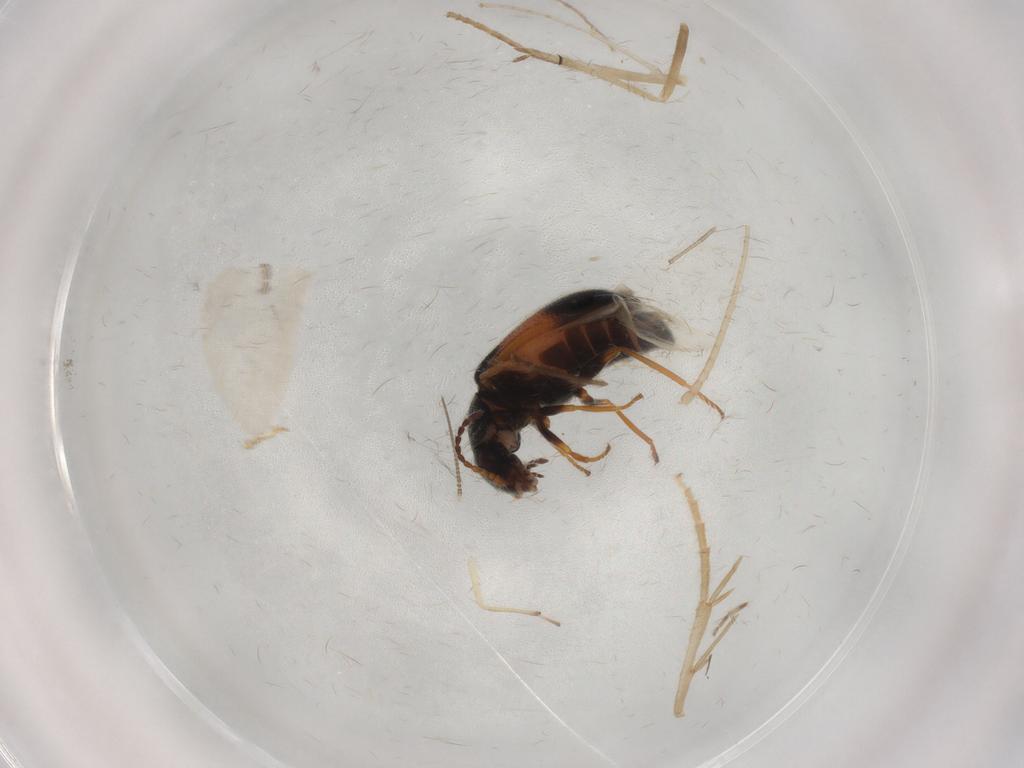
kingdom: Animalia
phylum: Arthropoda
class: Insecta
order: Coleoptera
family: Melyridae
